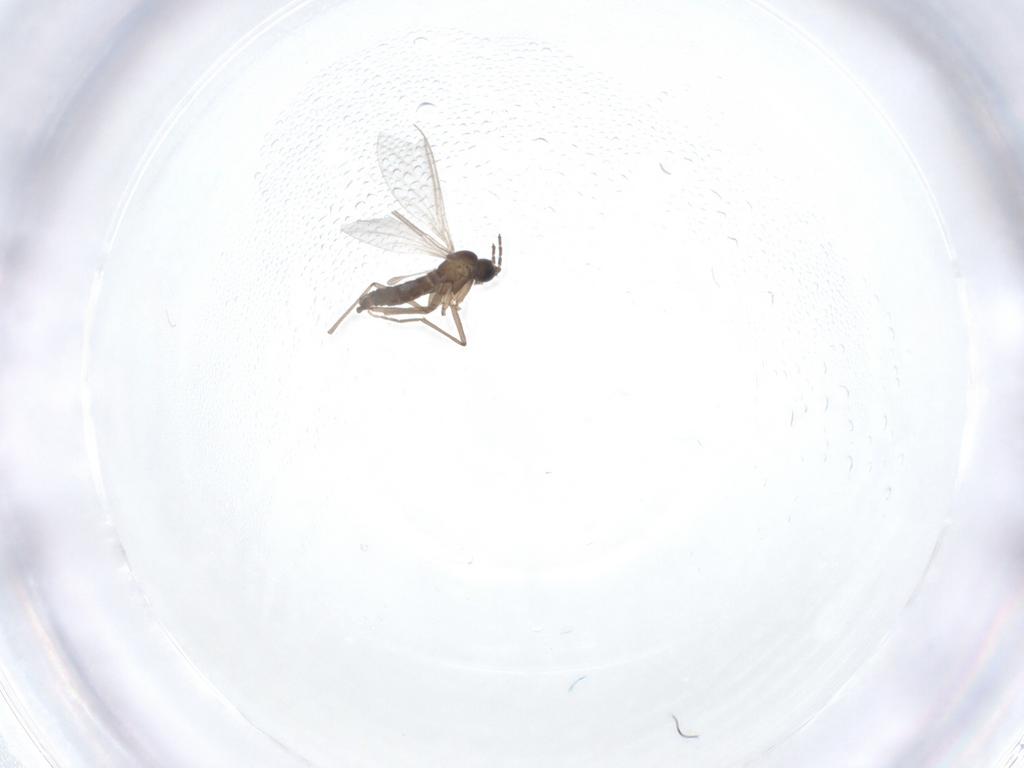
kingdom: Animalia
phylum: Arthropoda
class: Insecta
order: Diptera
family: Sciaridae
